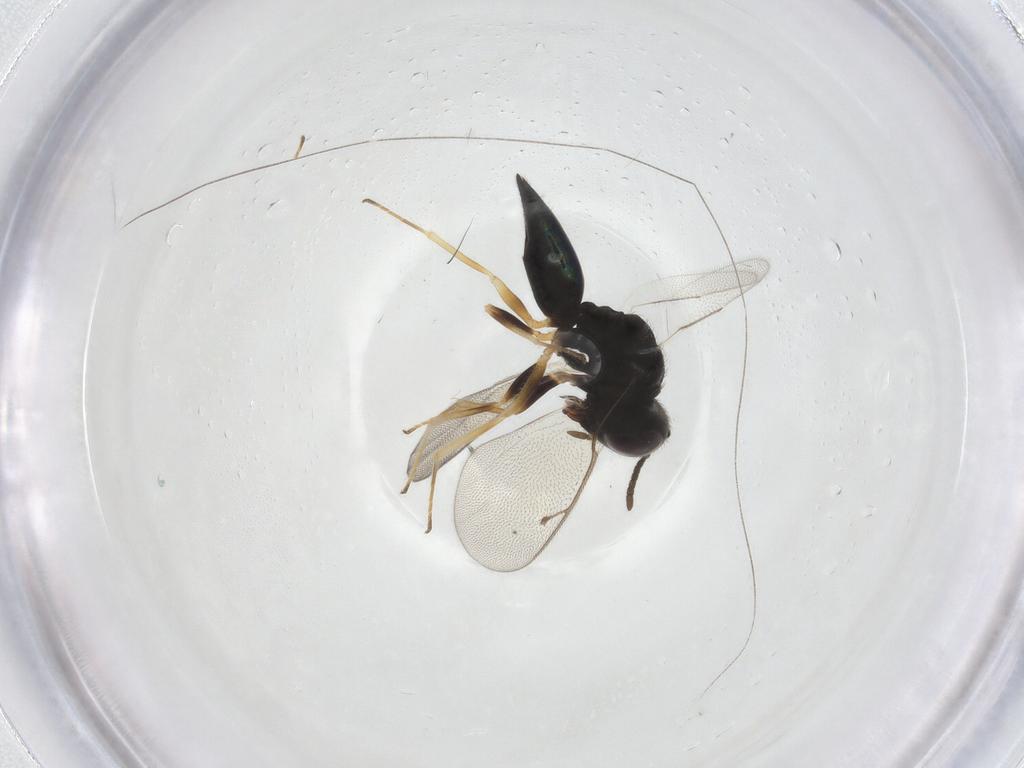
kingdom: Animalia
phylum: Arthropoda
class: Insecta
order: Hymenoptera
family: Pteromalidae
